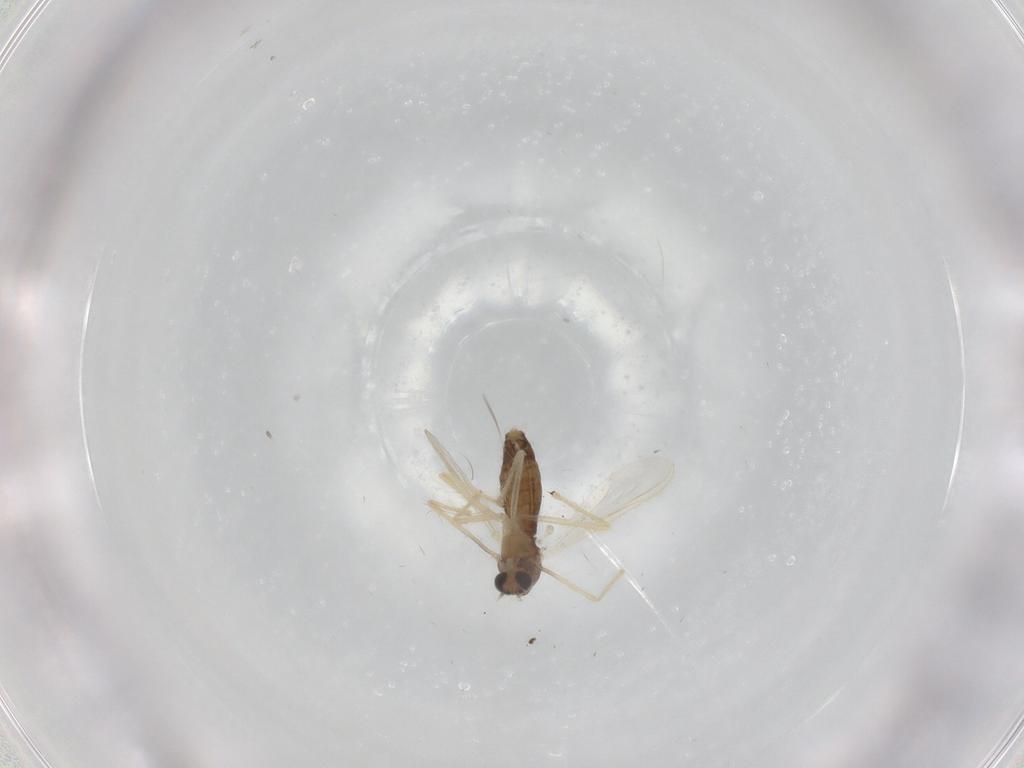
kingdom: Animalia
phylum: Arthropoda
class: Insecta
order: Diptera
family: Chironomidae
